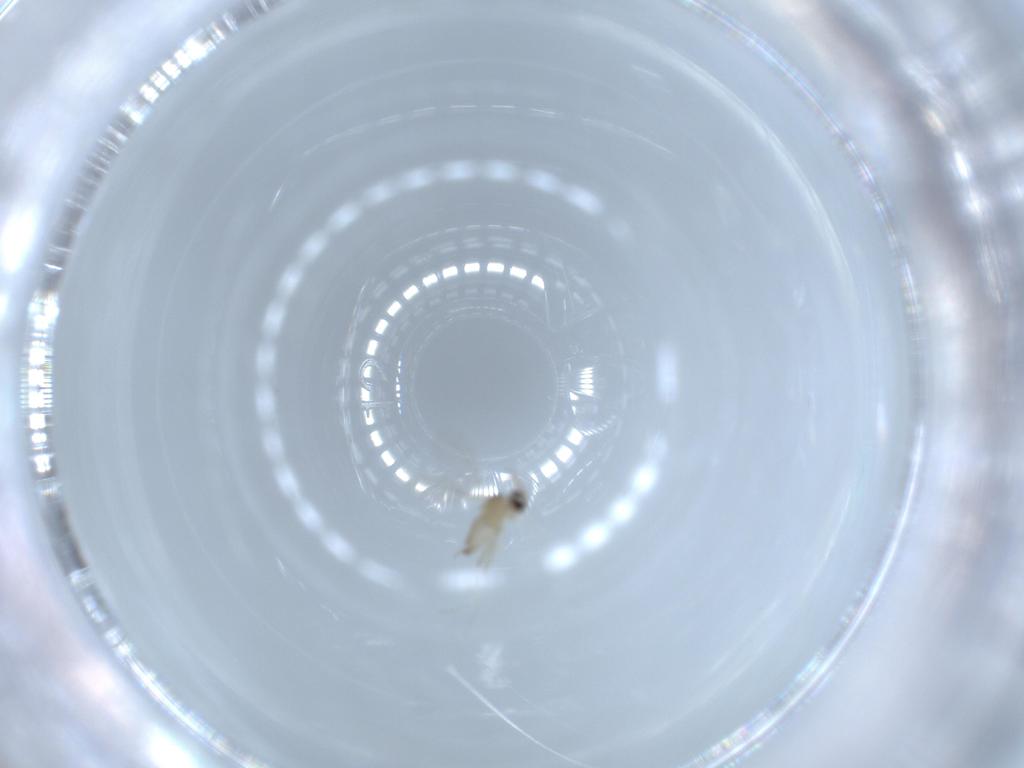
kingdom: Animalia
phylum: Arthropoda
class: Insecta
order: Diptera
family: Cecidomyiidae
